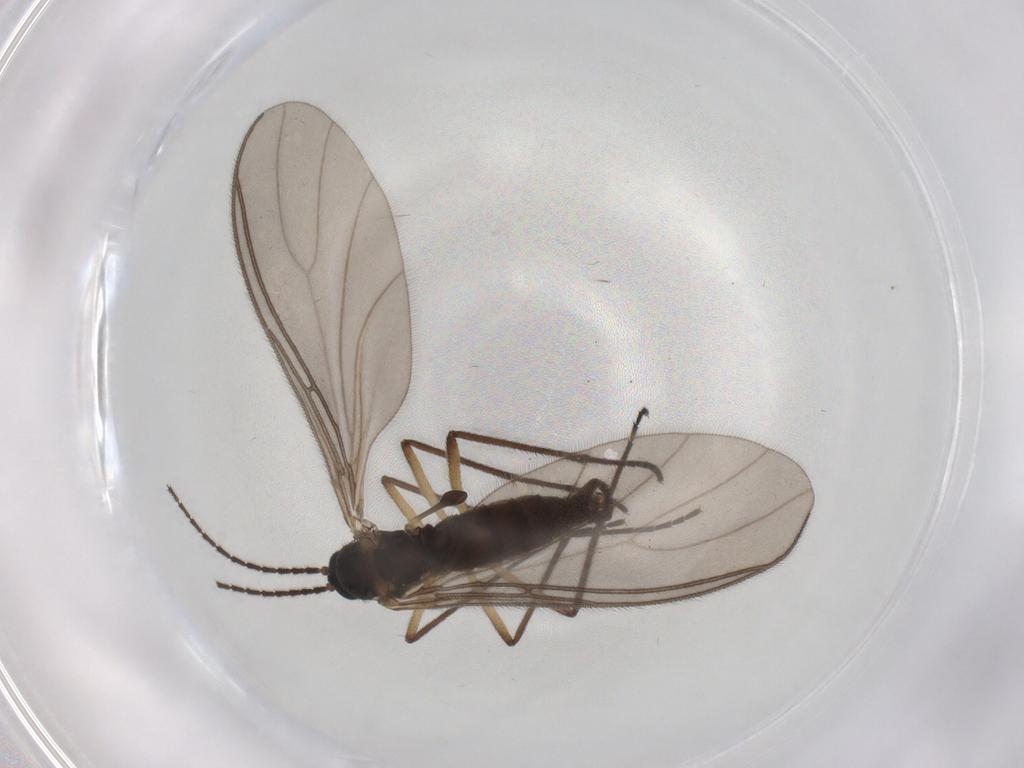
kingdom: Animalia
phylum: Arthropoda
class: Insecta
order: Diptera
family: Sciaridae
